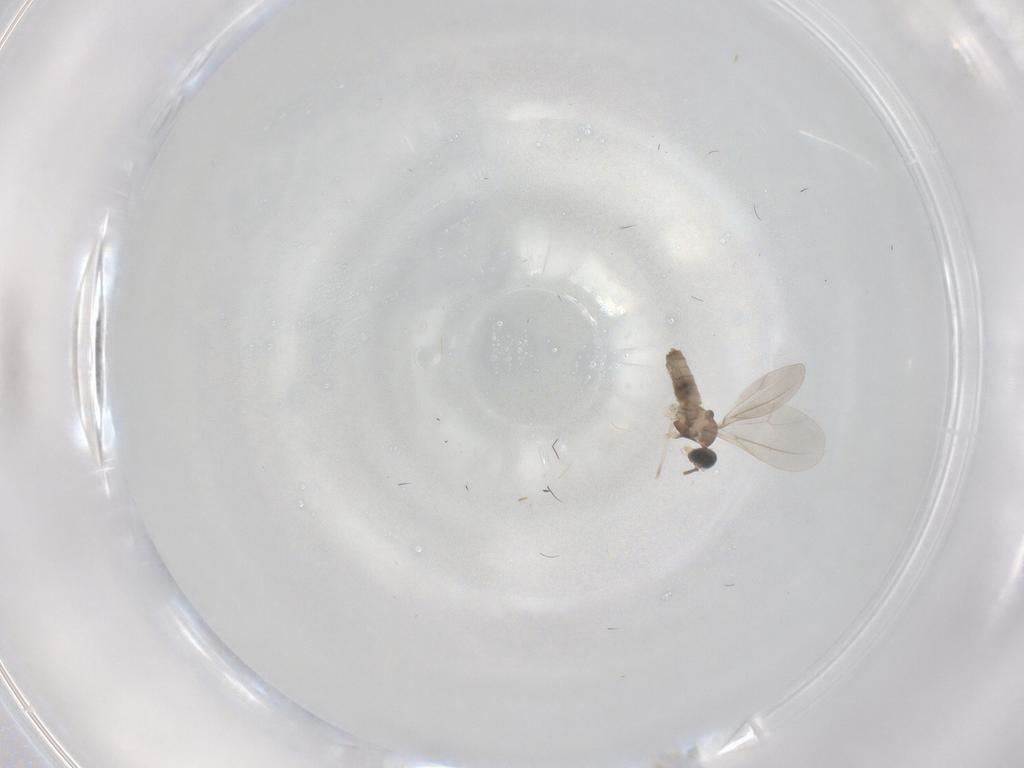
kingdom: Animalia
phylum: Arthropoda
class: Insecta
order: Diptera
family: Cecidomyiidae
